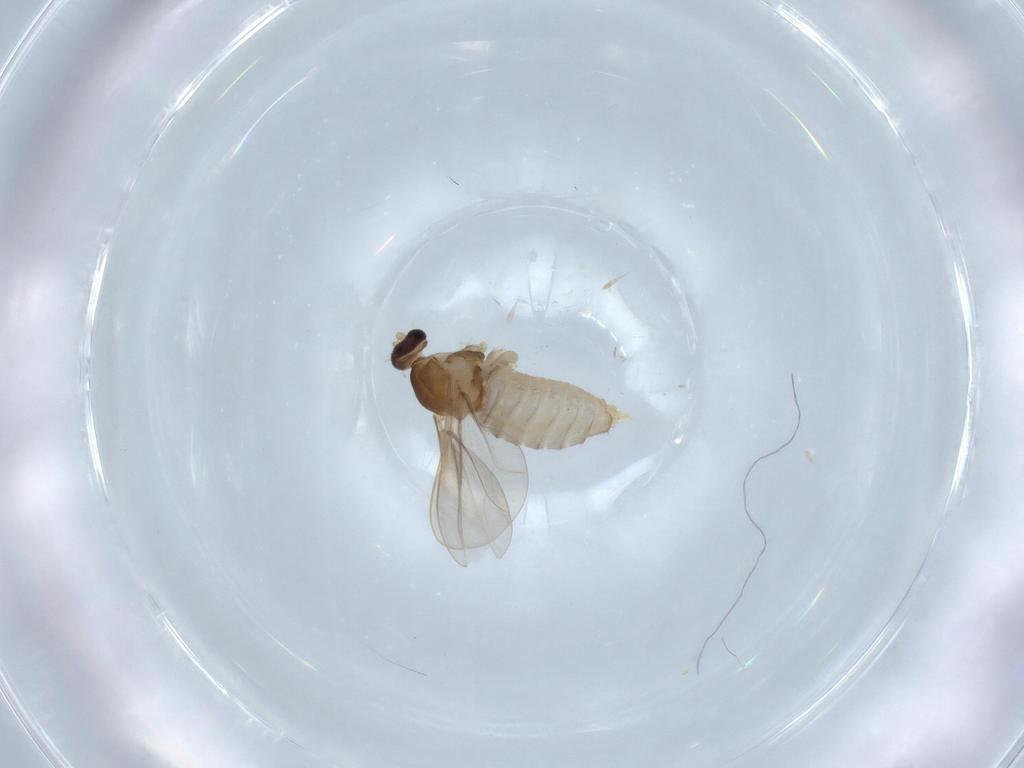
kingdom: Animalia
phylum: Arthropoda
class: Insecta
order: Diptera
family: Cecidomyiidae
